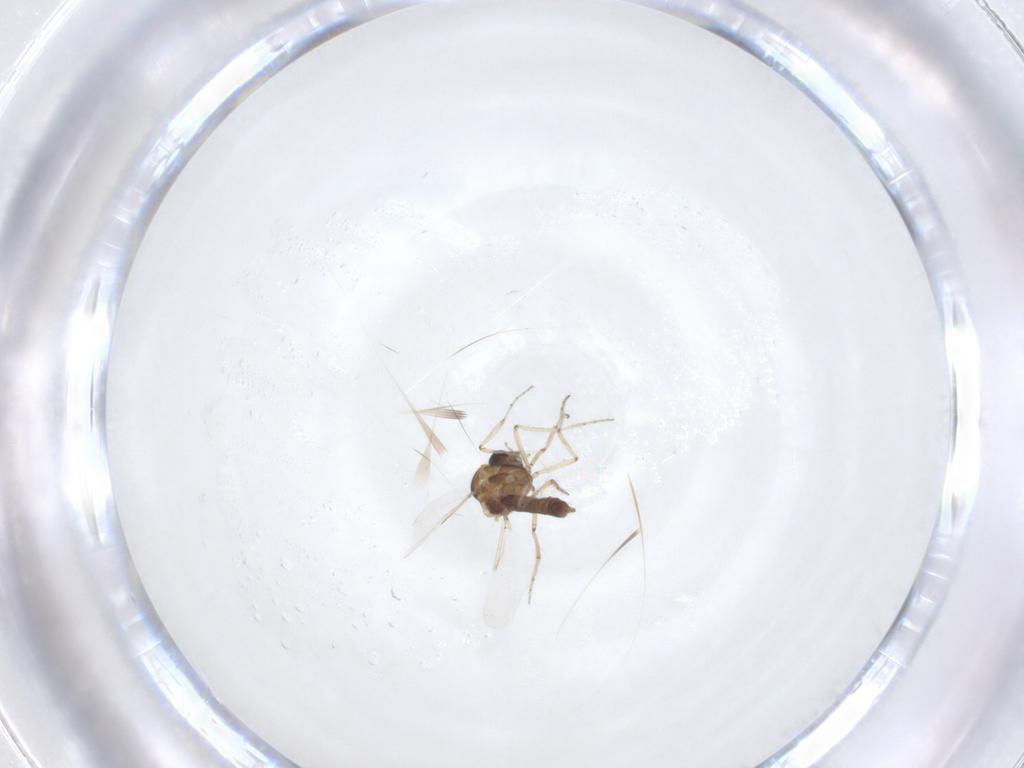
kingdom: Animalia
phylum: Arthropoda
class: Insecta
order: Diptera
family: Ceratopogonidae
